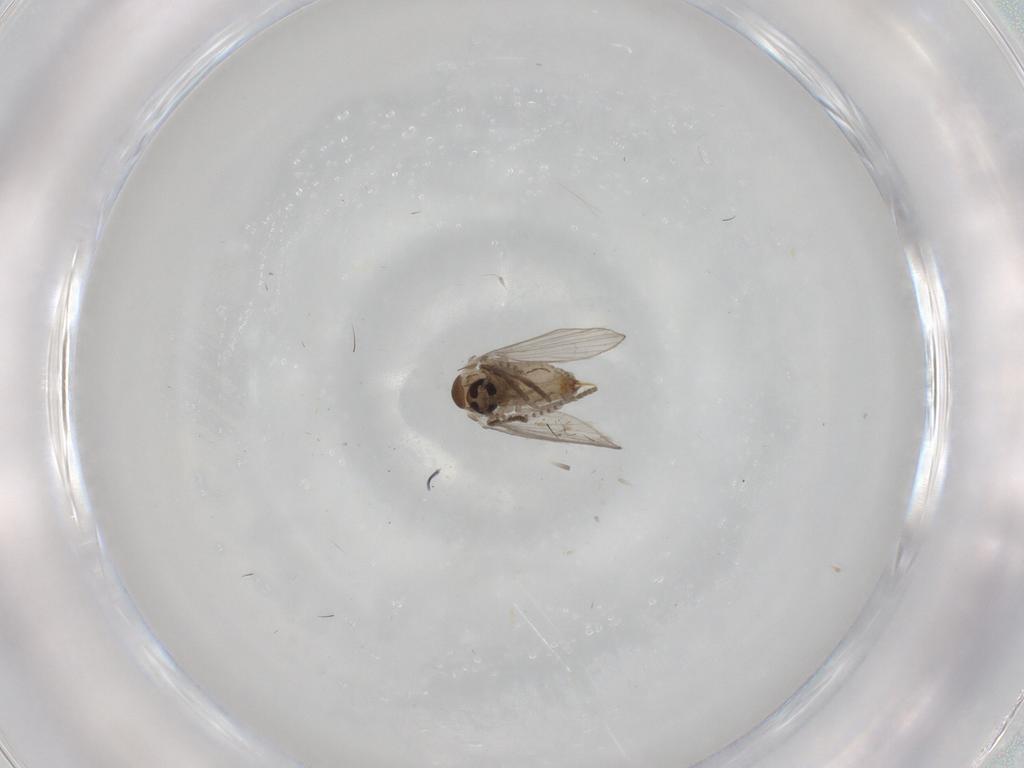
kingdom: Animalia
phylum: Arthropoda
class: Insecta
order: Diptera
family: Psychodidae
